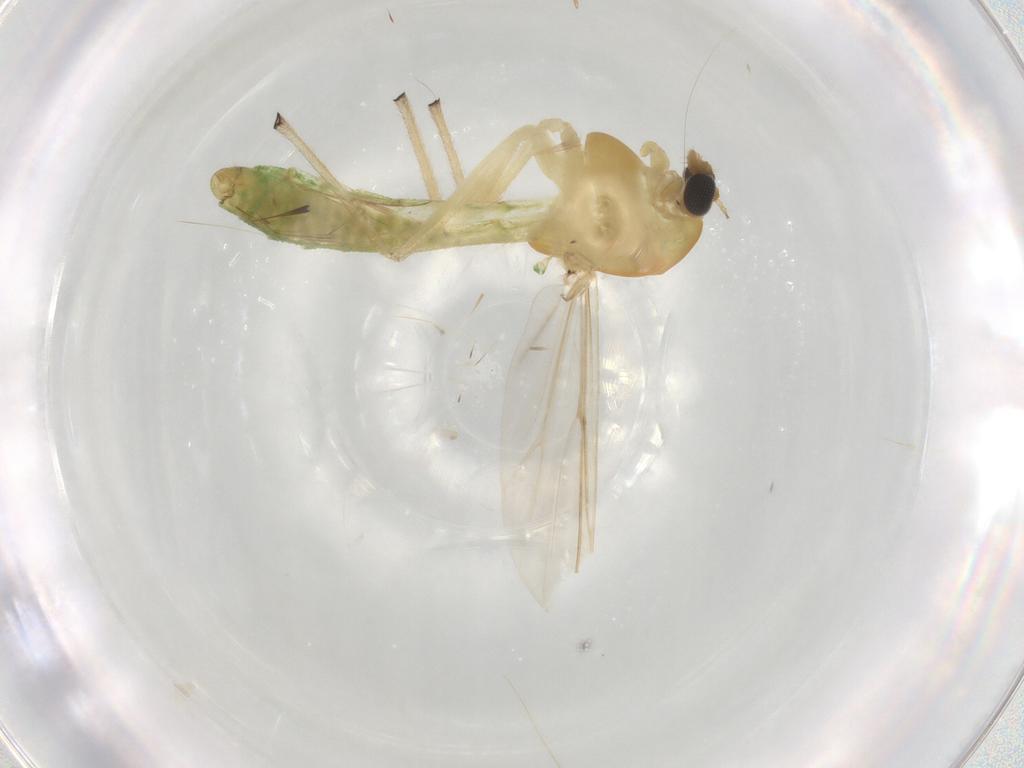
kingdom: Animalia
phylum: Arthropoda
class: Insecta
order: Diptera
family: Chironomidae
